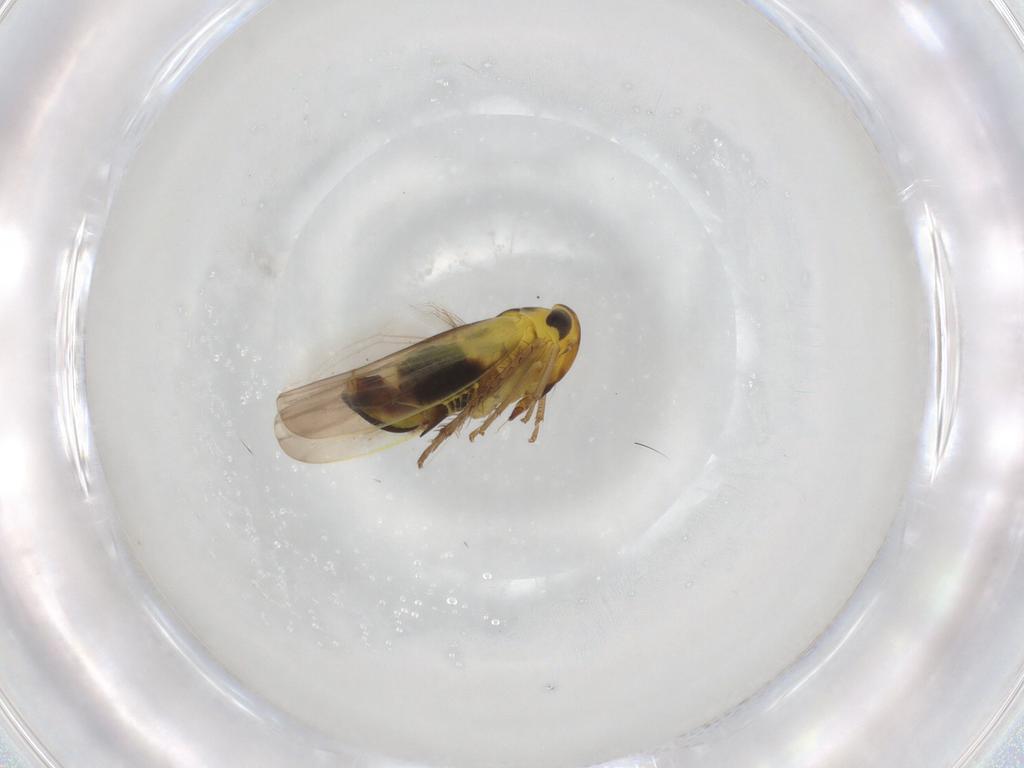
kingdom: Animalia
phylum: Arthropoda
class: Insecta
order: Hemiptera
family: Cicadellidae
